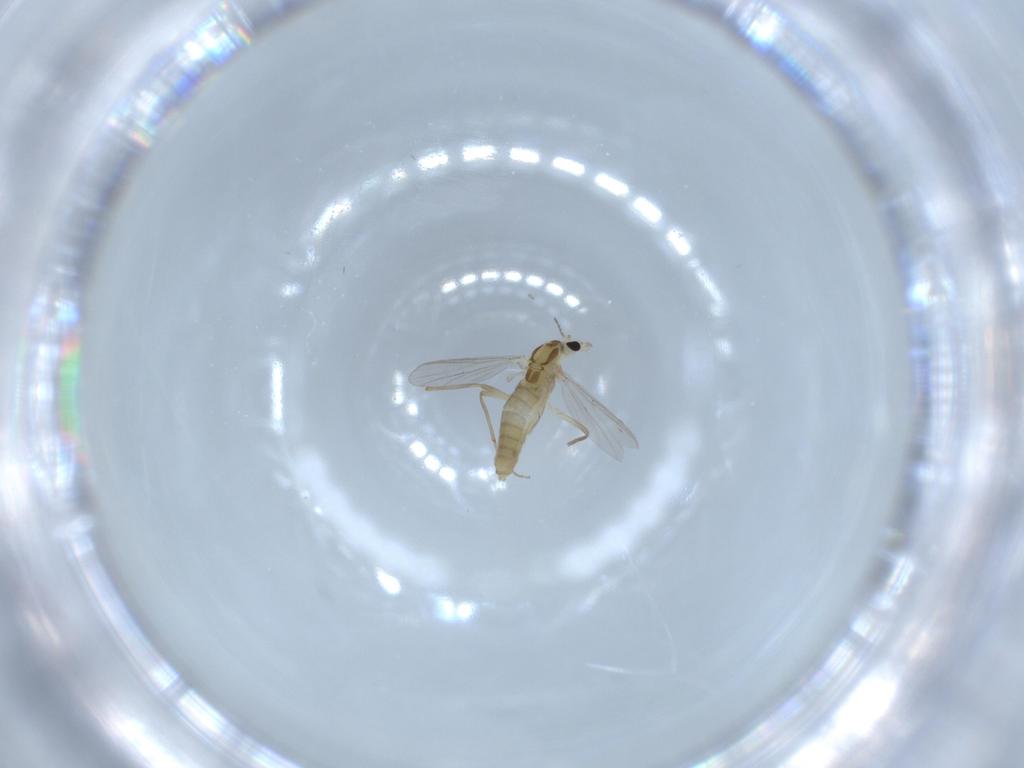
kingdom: Animalia
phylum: Arthropoda
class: Insecta
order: Diptera
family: Chironomidae
